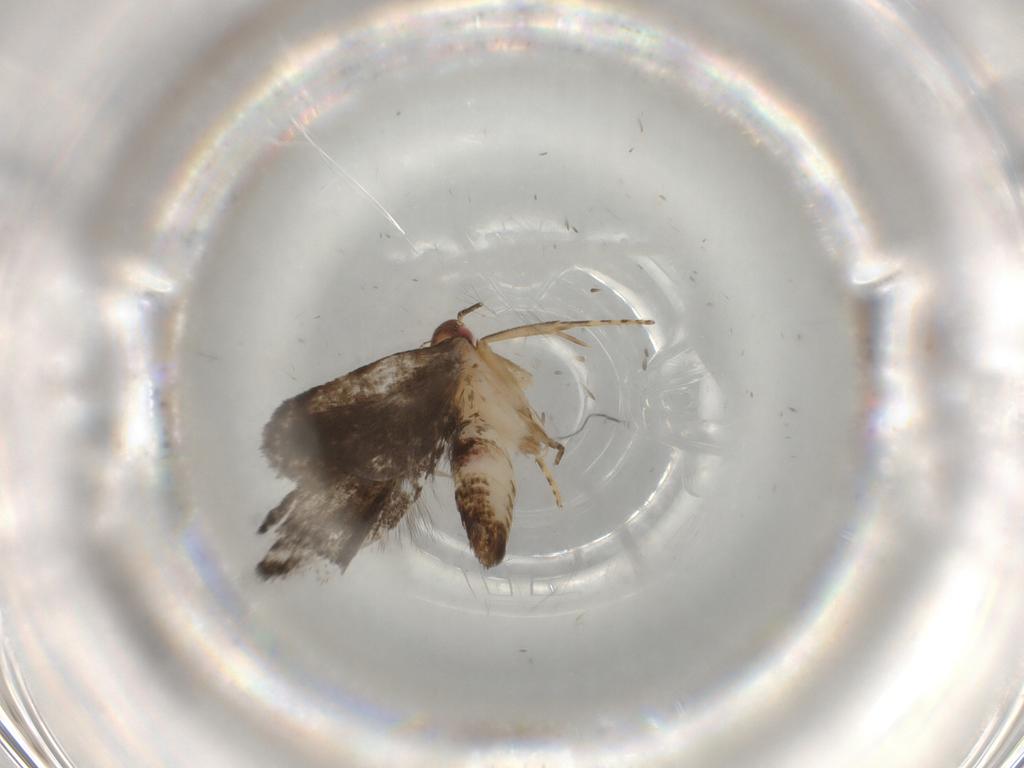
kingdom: Animalia
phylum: Arthropoda
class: Insecta
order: Lepidoptera
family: Gelechiidae
